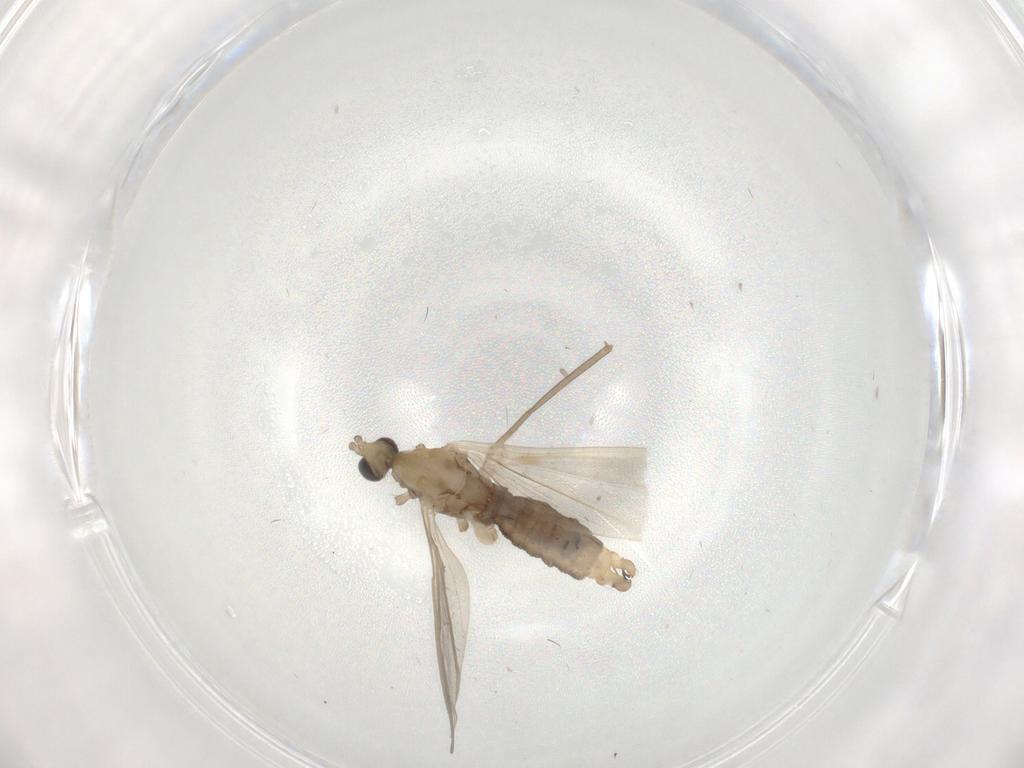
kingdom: Animalia
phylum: Arthropoda
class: Insecta
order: Diptera
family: Limoniidae
